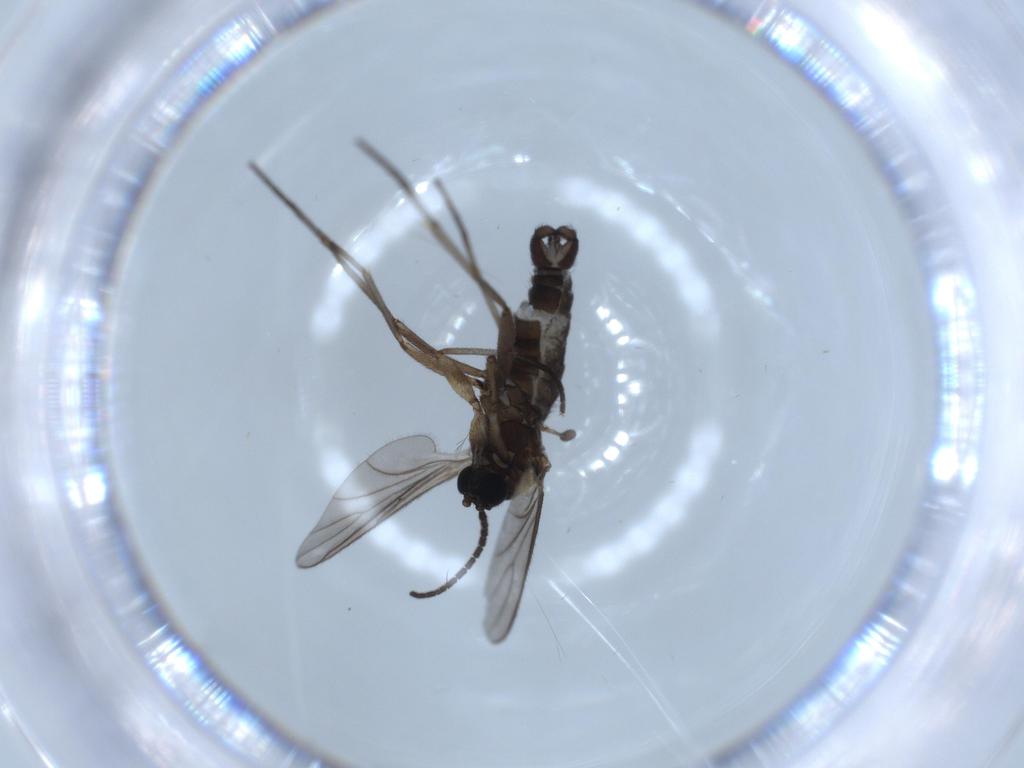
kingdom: Animalia
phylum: Arthropoda
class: Insecta
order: Diptera
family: Sciaridae
